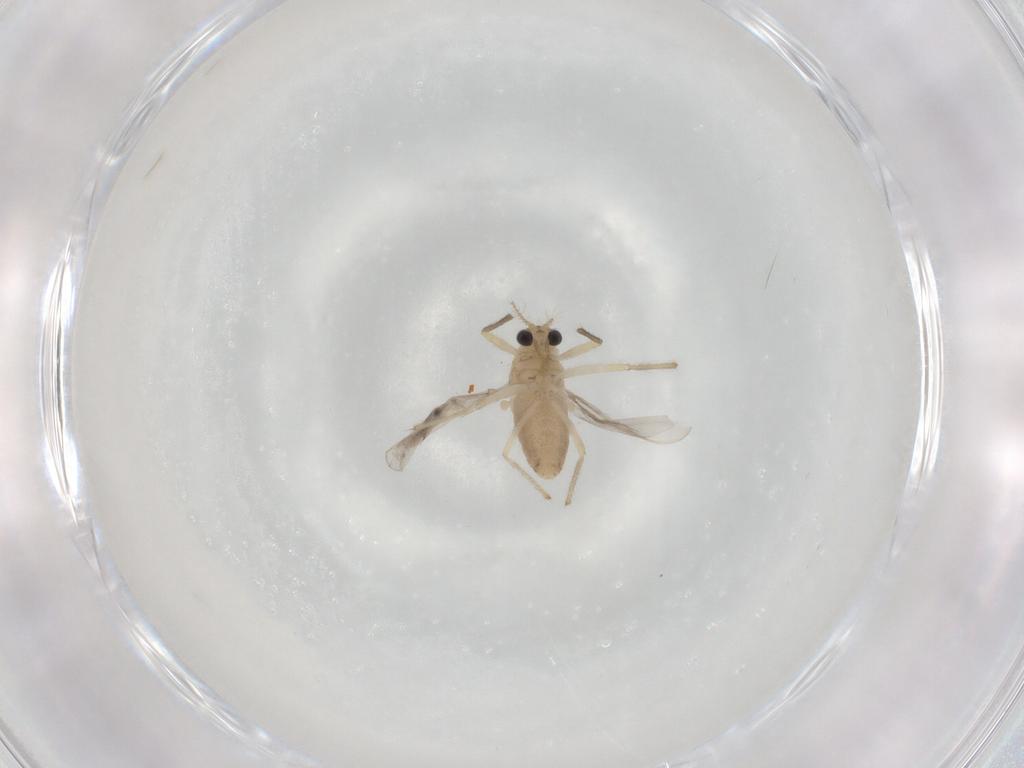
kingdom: Animalia
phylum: Arthropoda
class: Insecta
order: Diptera
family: Chironomidae
